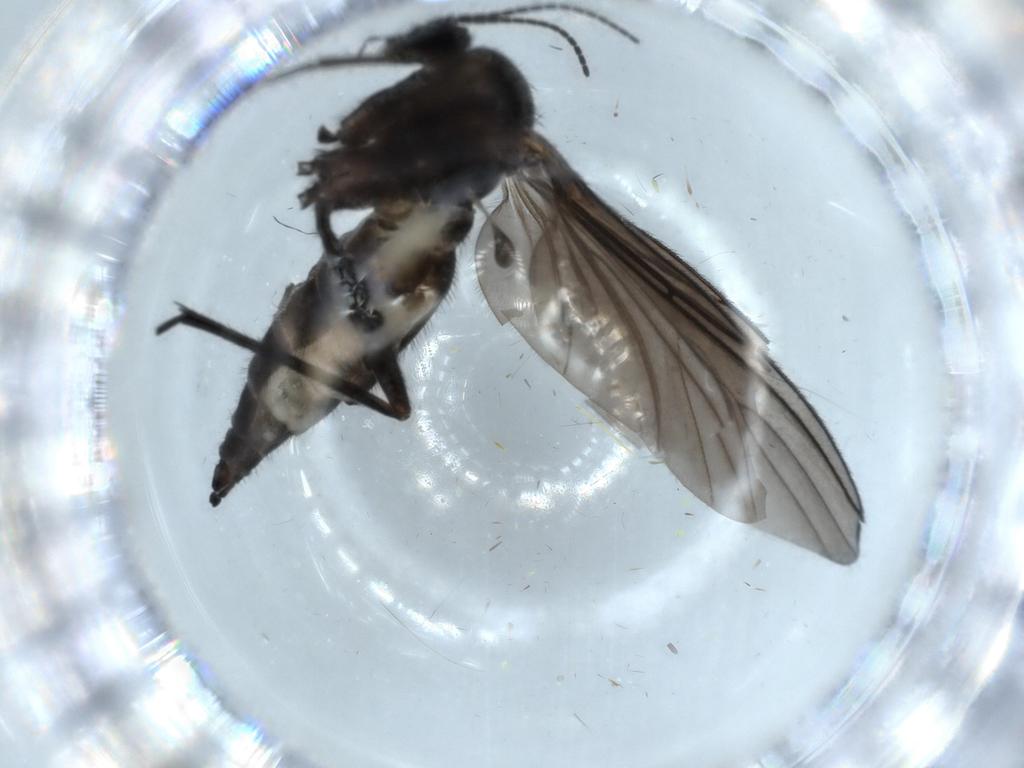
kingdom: Animalia
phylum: Arthropoda
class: Insecta
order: Diptera
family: Sciaridae
